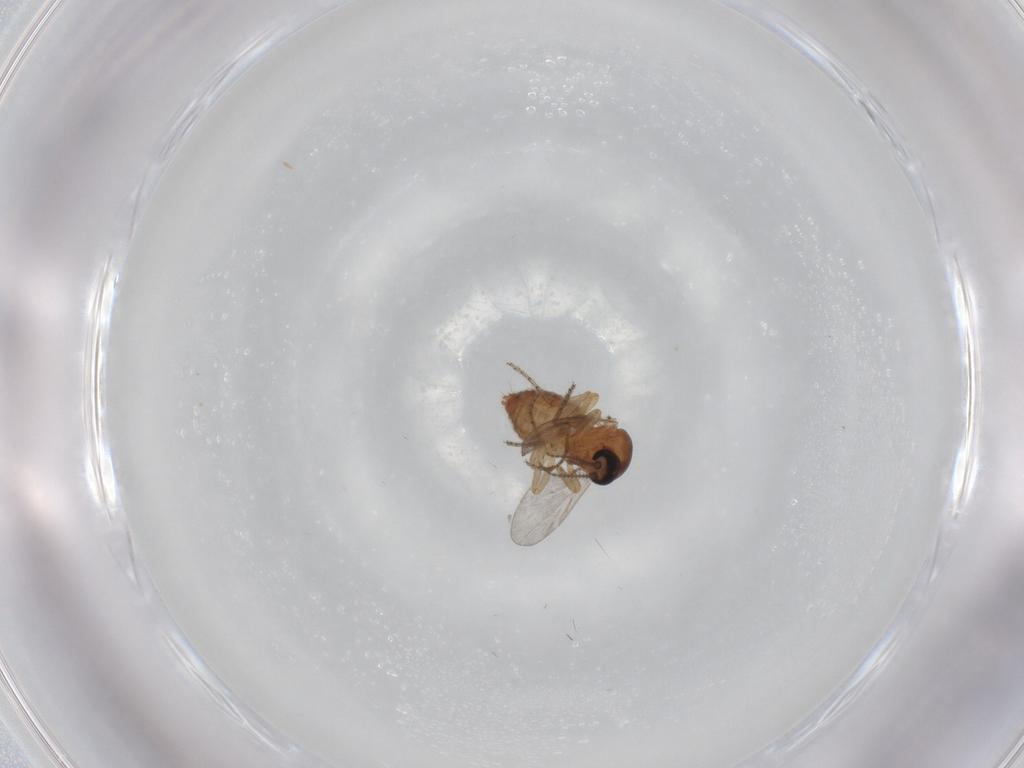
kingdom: Animalia
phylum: Arthropoda
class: Insecta
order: Diptera
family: Ceratopogonidae
